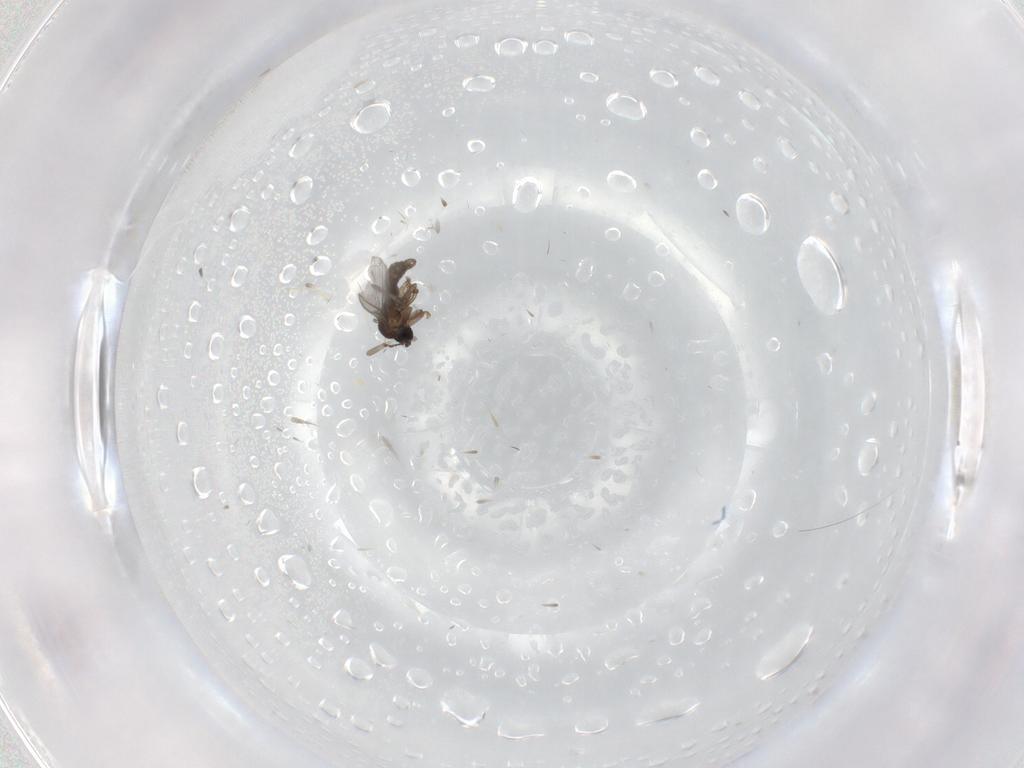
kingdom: Animalia
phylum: Arthropoda
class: Insecta
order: Diptera
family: Sciaridae
